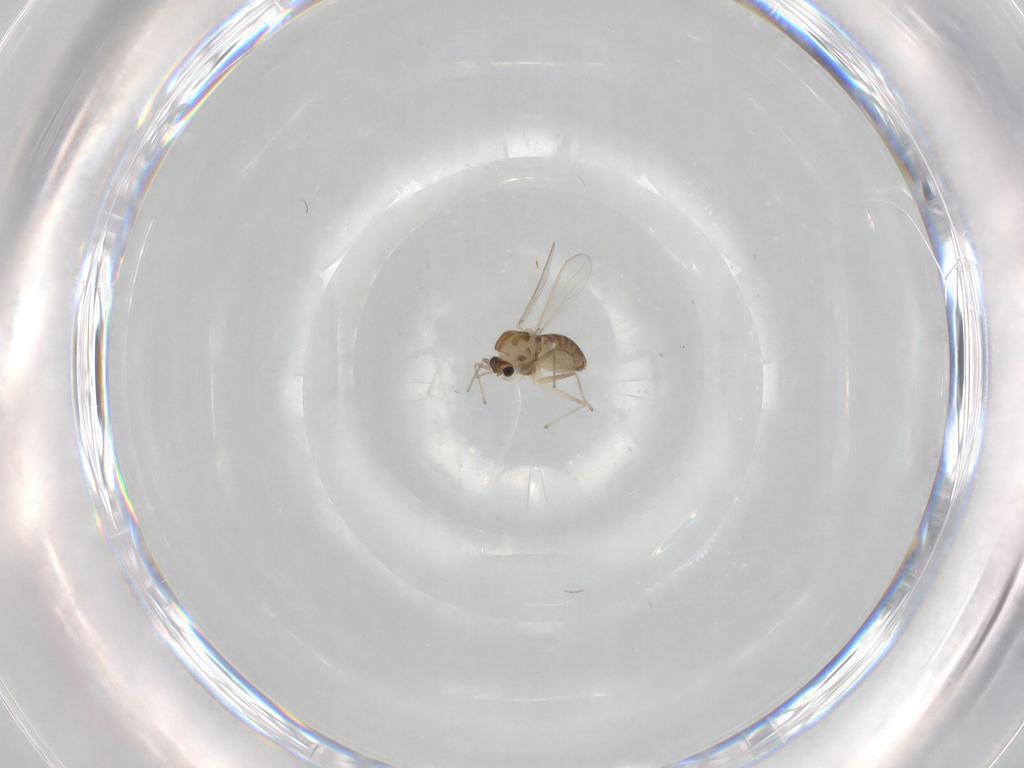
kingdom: Animalia
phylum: Arthropoda
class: Insecta
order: Diptera
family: Chironomidae
